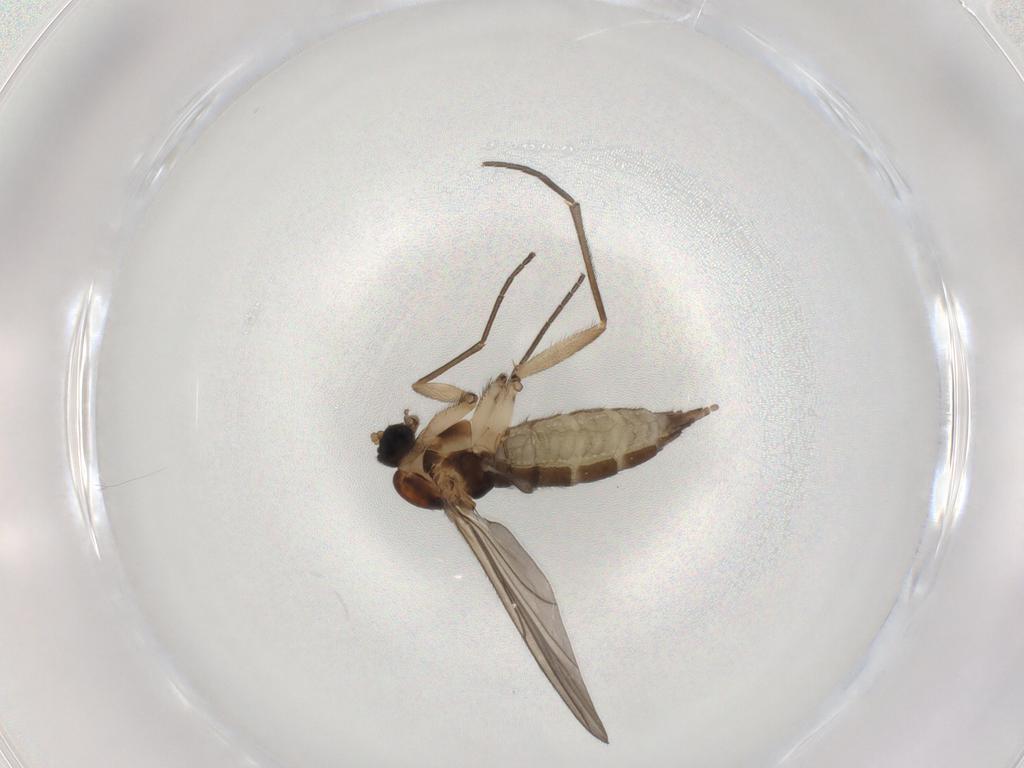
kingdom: Animalia
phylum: Arthropoda
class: Insecta
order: Diptera
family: Sciaridae
